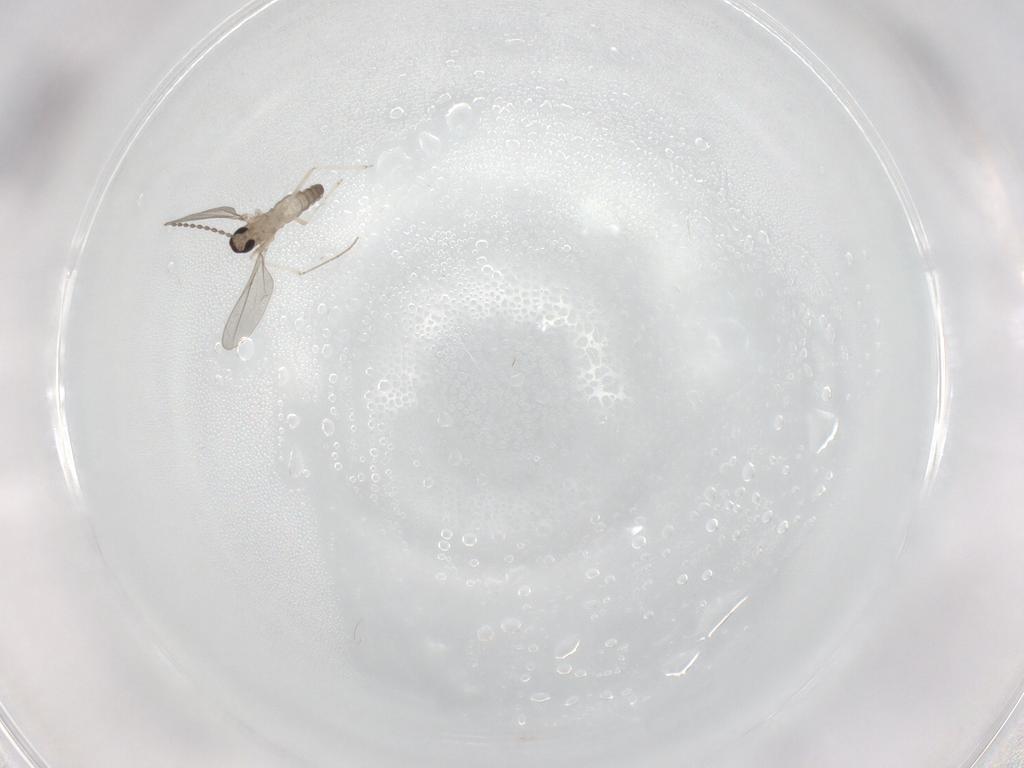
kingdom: Animalia
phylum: Arthropoda
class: Insecta
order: Diptera
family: Cecidomyiidae
